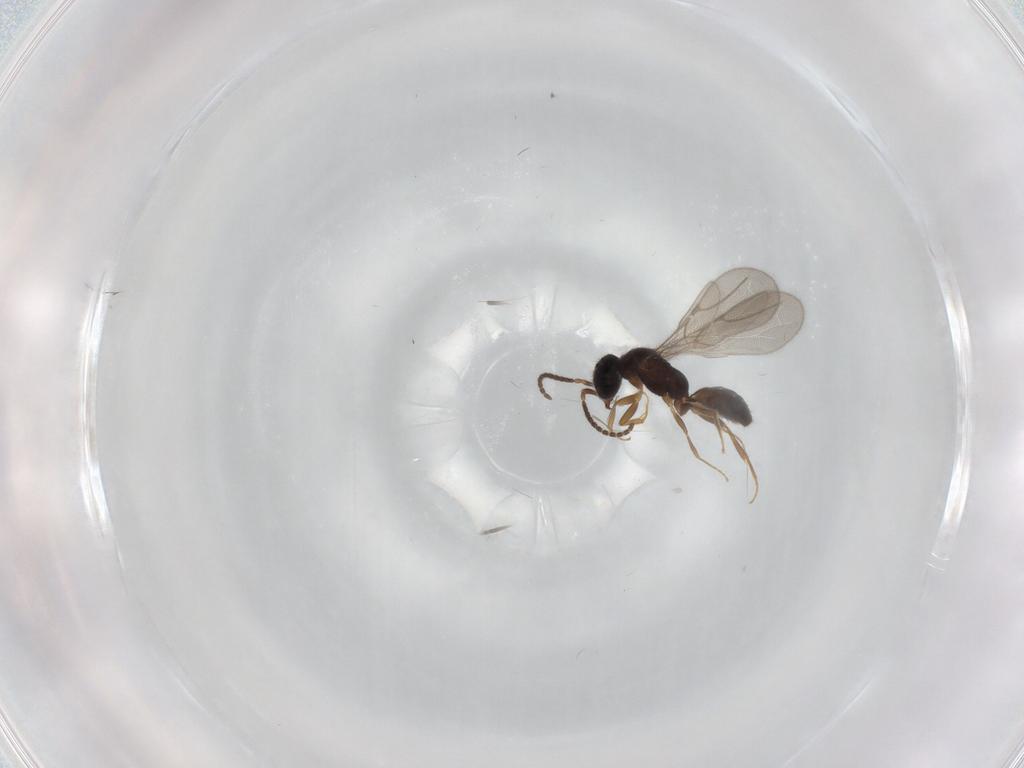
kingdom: Animalia
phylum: Arthropoda
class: Insecta
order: Hymenoptera
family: Bethylidae
